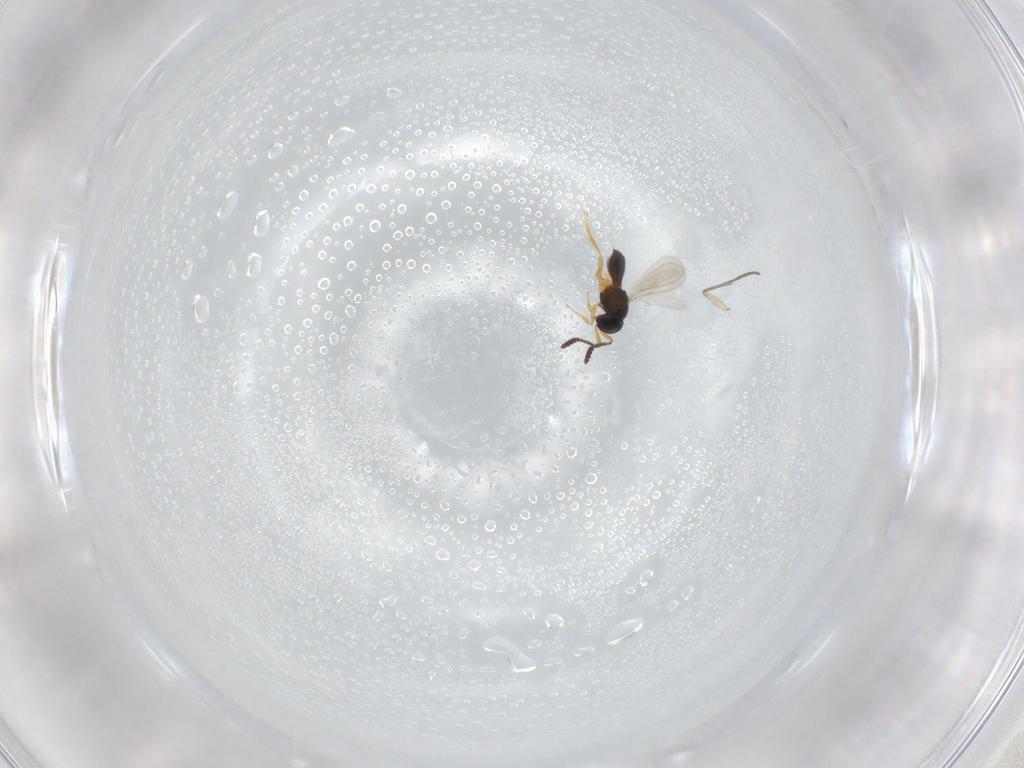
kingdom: Animalia
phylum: Arthropoda
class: Insecta
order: Hymenoptera
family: Scelionidae
